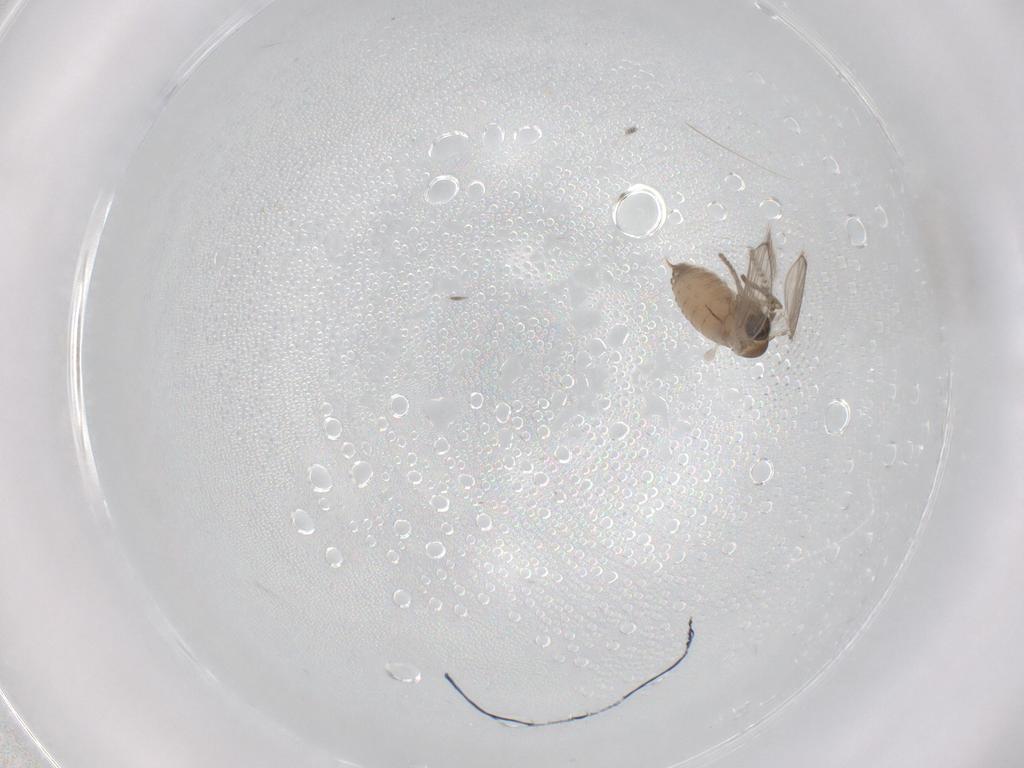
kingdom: Animalia
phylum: Arthropoda
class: Insecta
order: Diptera
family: Psychodidae
